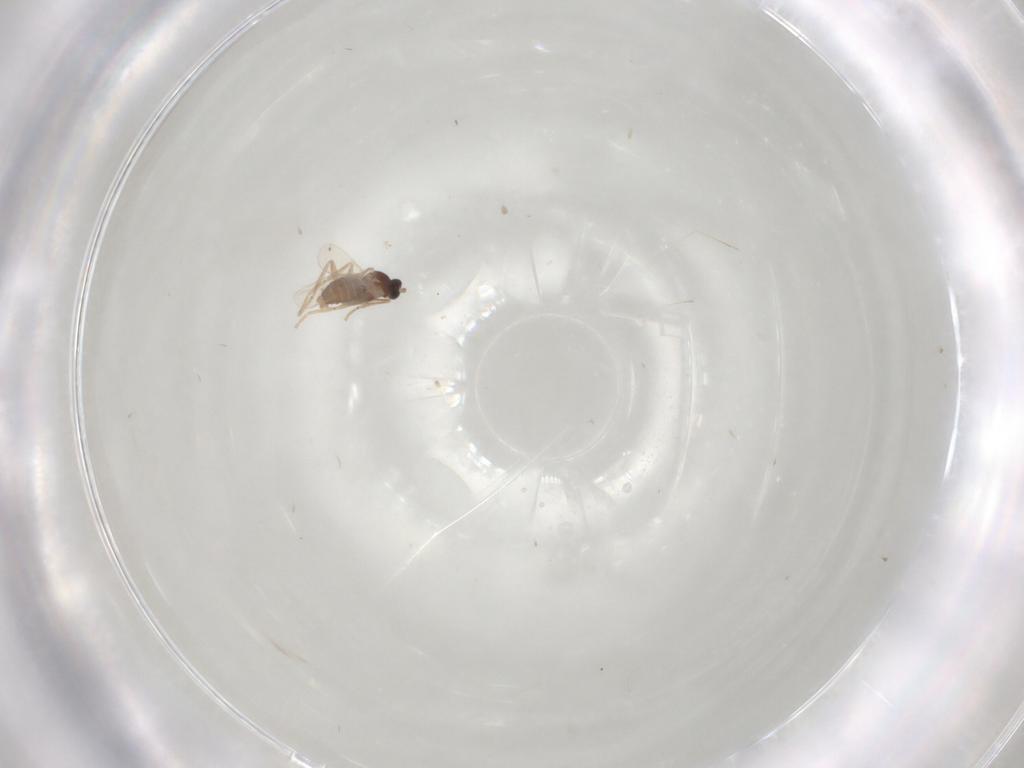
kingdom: Animalia
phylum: Arthropoda
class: Insecta
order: Diptera
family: Cecidomyiidae
